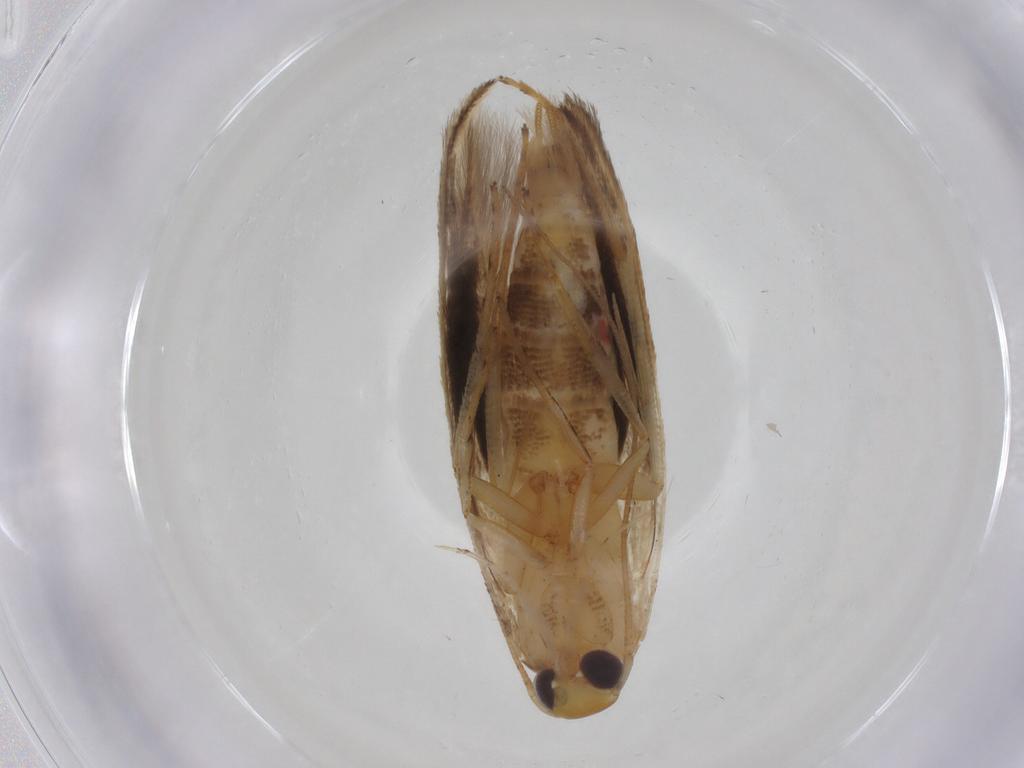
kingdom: Animalia
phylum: Arthropoda
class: Insecta
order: Lepidoptera
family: Momphidae
